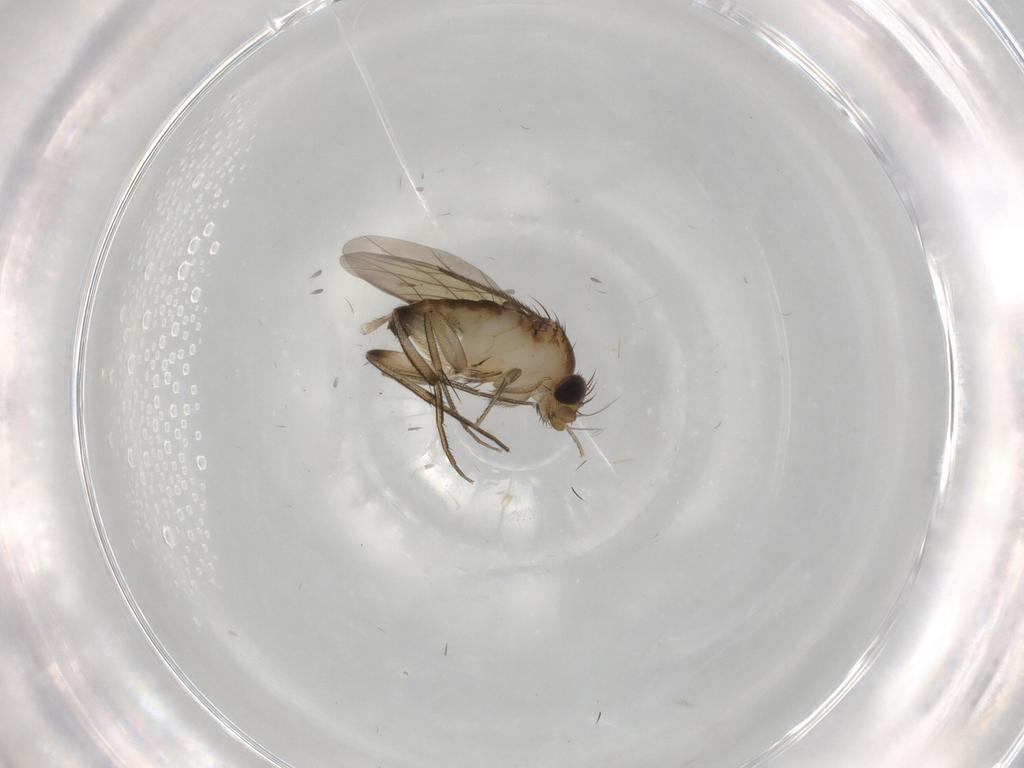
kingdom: Animalia
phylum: Arthropoda
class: Insecta
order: Diptera
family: Phoridae
